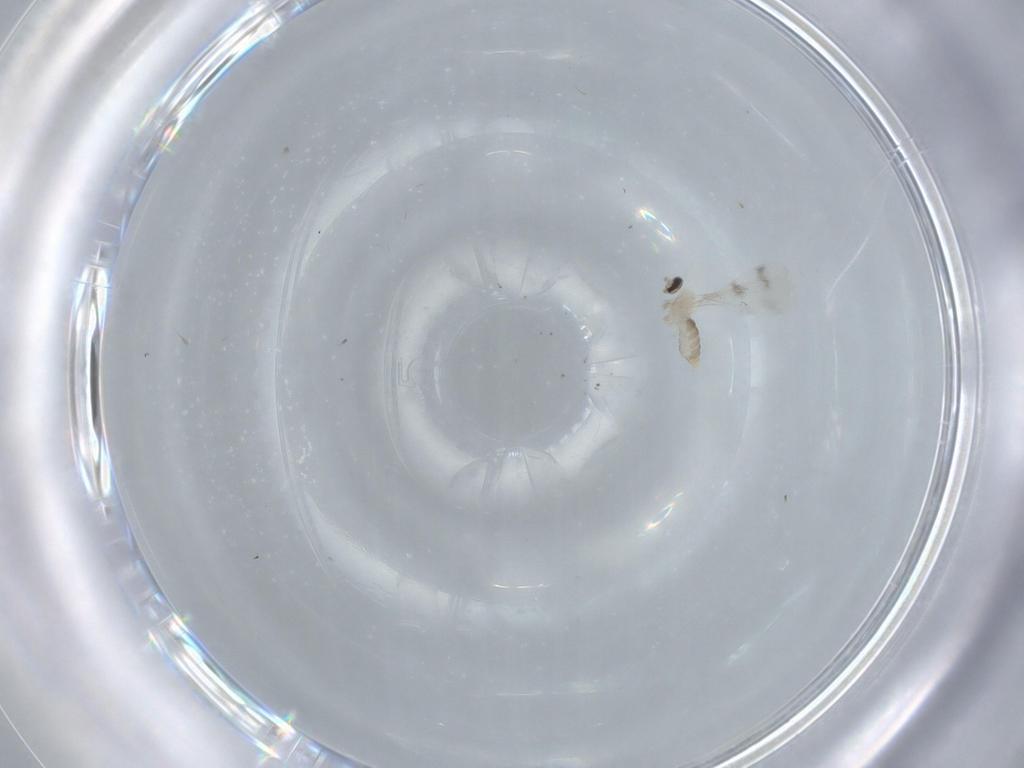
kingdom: Animalia
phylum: Arthropoda
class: Insecta
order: Diptera
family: Cecidomyiidae
